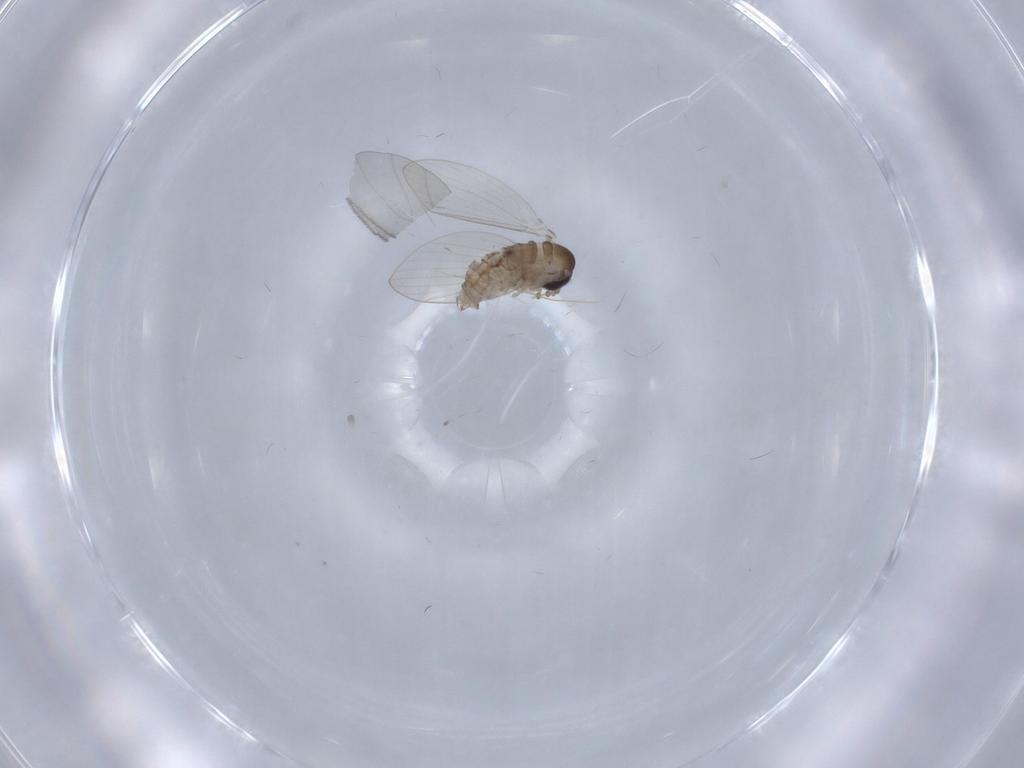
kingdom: Animalia
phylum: Arthropoda
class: Insecta
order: Diptera
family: Psychodidae
